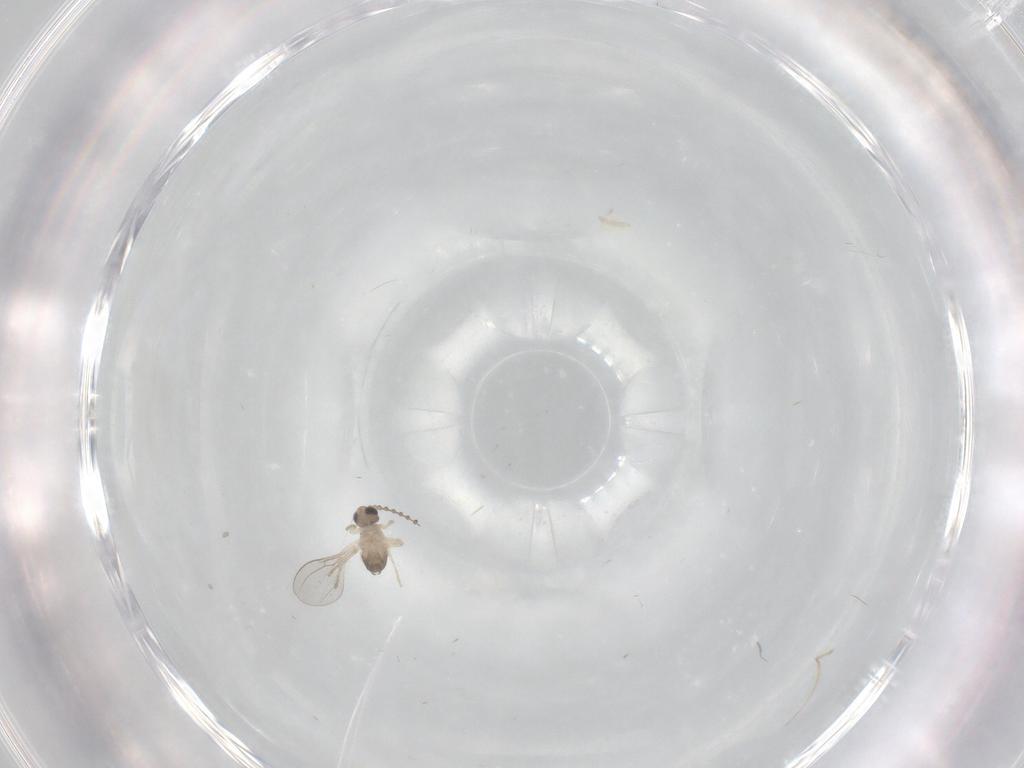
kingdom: Animalia
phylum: Arthropoda
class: Insecta
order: Diptera
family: Cecidomyiidae
